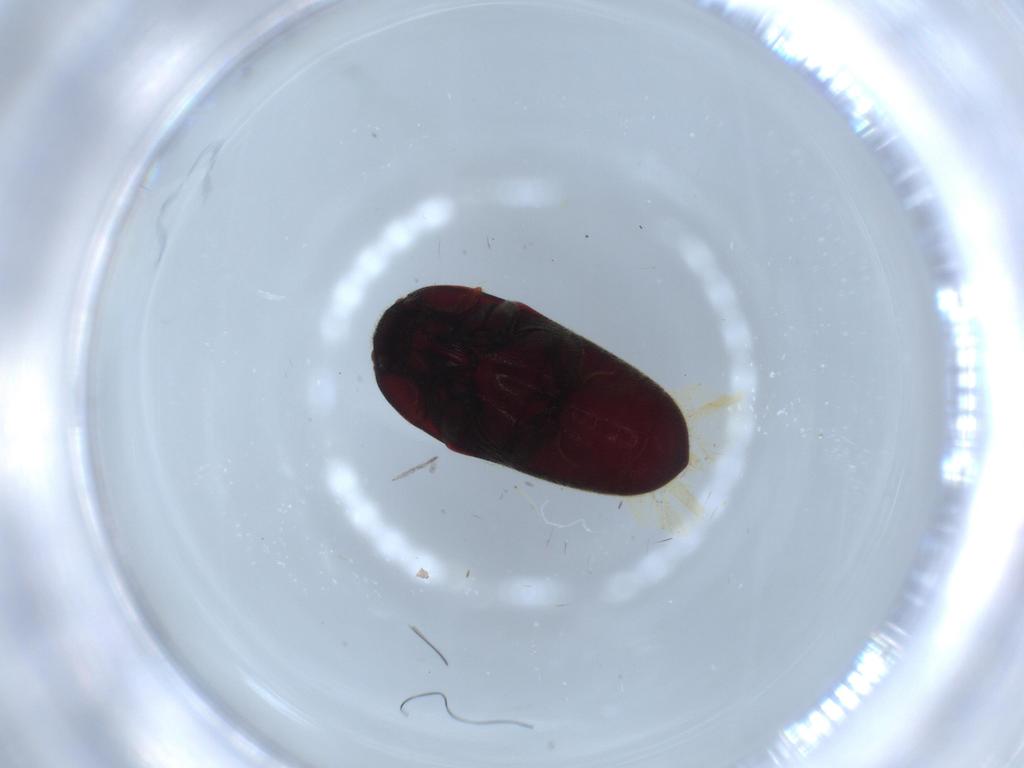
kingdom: Animalia
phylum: Arthropoda
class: Insecta
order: Coleoptera
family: Throscidae
